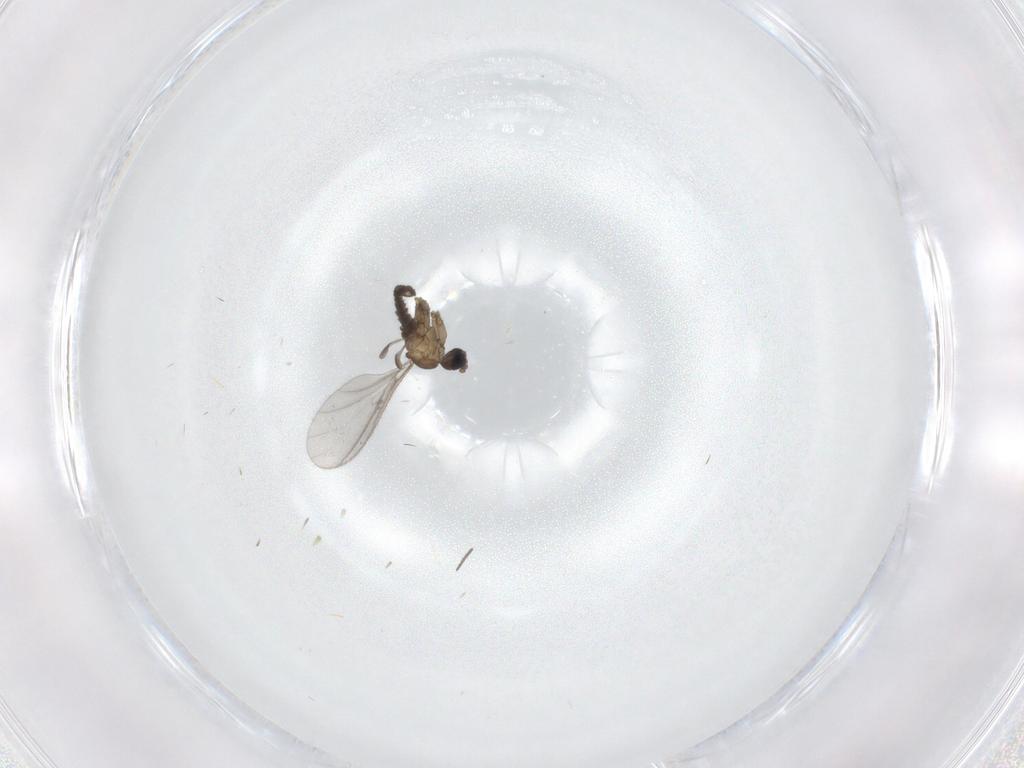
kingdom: Animalia
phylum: Arthropoda
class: Insecta
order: Diptera
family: Sciaridae
